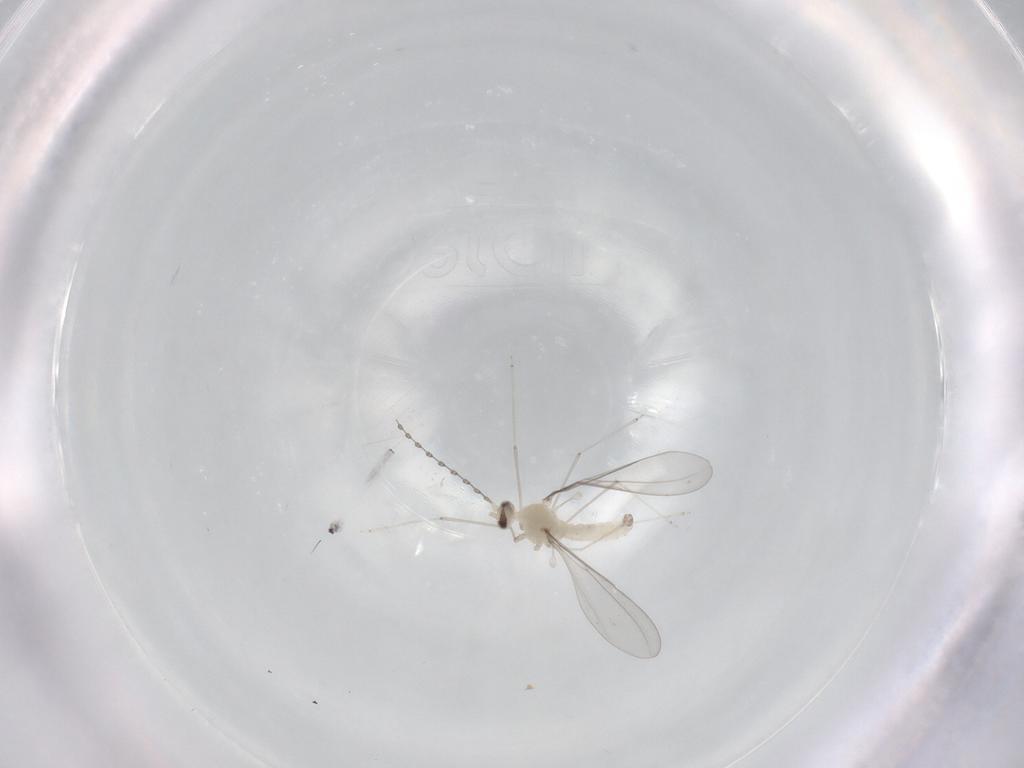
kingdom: Animalia
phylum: Arthropoda
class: Insecta
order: Diptera
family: Cecidomyiidae
